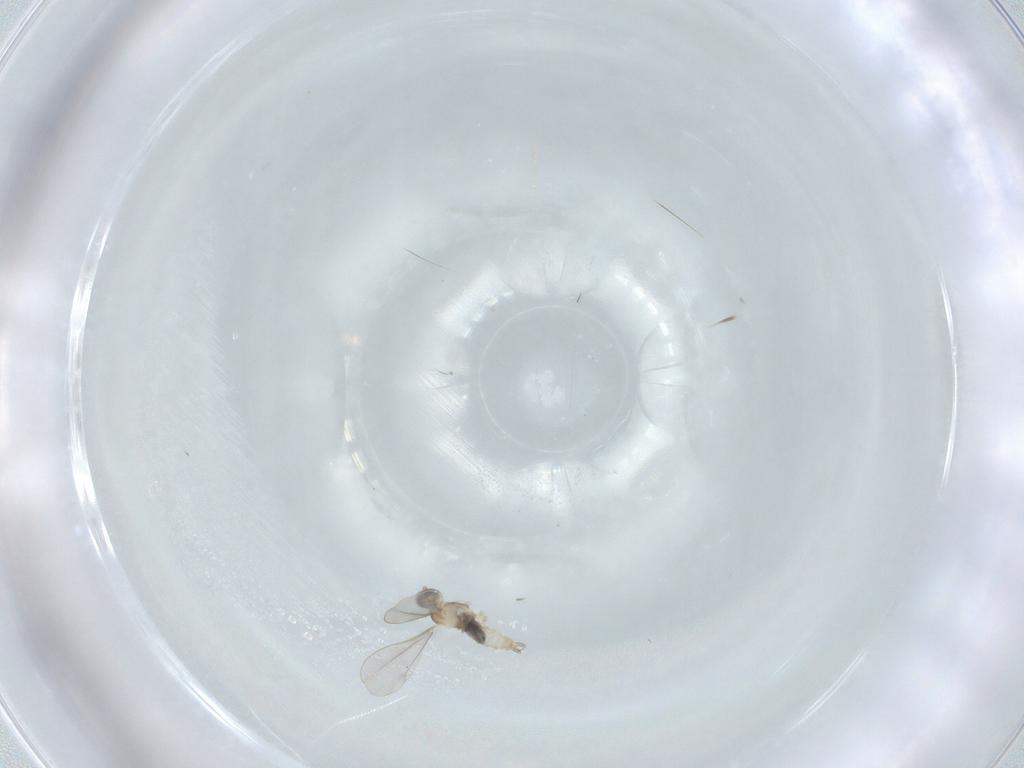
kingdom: Animalia
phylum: Arthropoda
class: Insecta
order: Diptera
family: Cecidomyiidae
